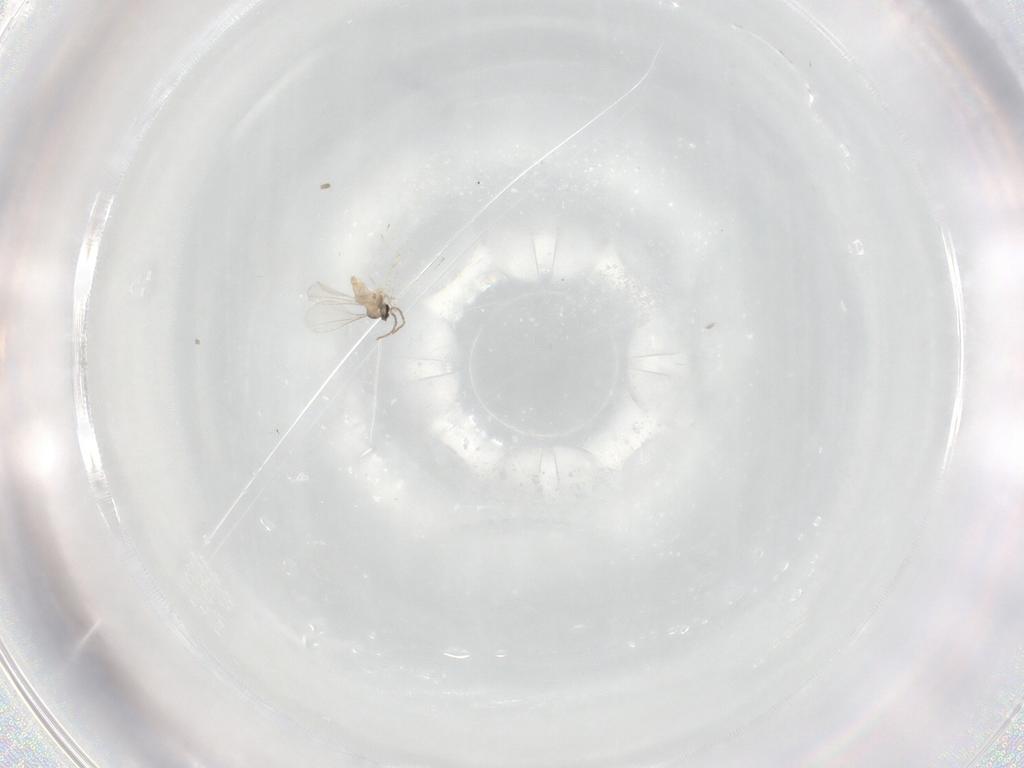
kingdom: Animalia
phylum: Arthropoda
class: Insecta
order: Diptera
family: Cecidomyiidae
